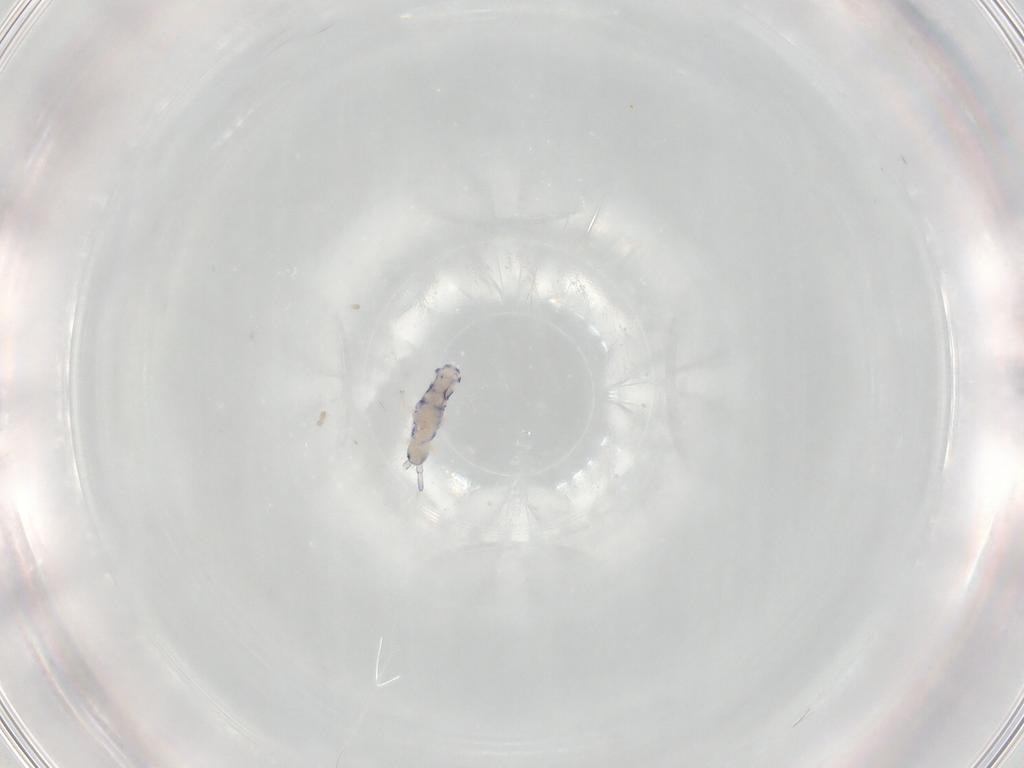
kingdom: Animalia
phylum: Arthropoda
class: Collembola
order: Entomobryomorpha
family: Entomobryidae
